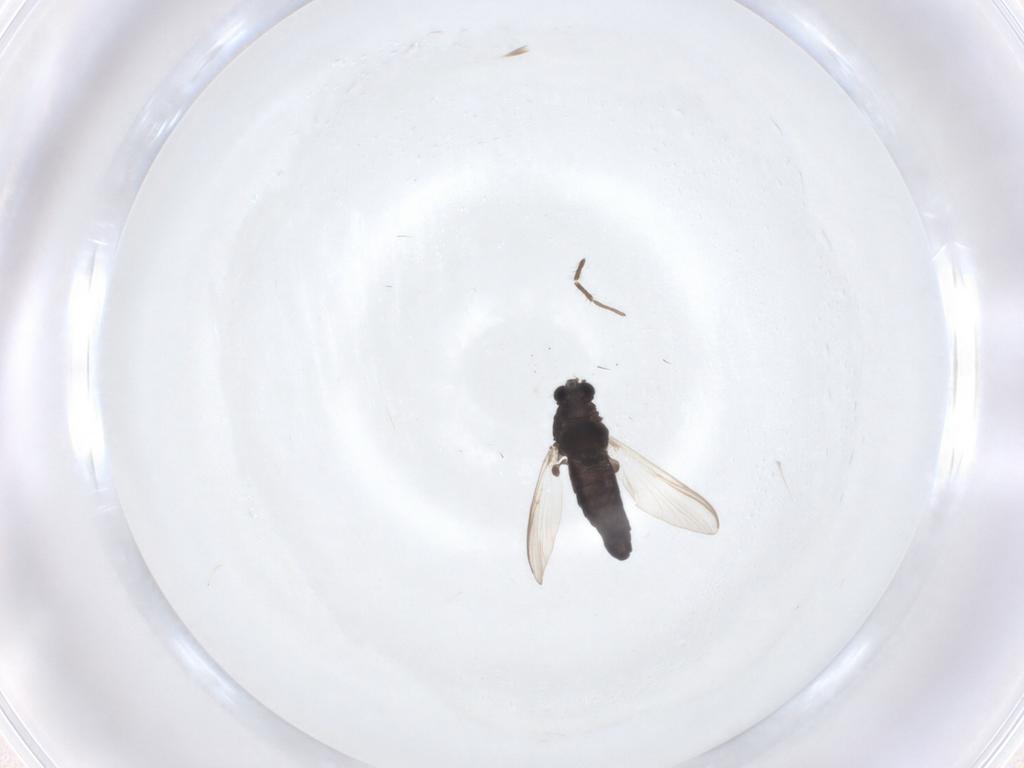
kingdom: Animalia
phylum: Arthropoda
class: Insecta
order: Diptera
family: Chironomidae
